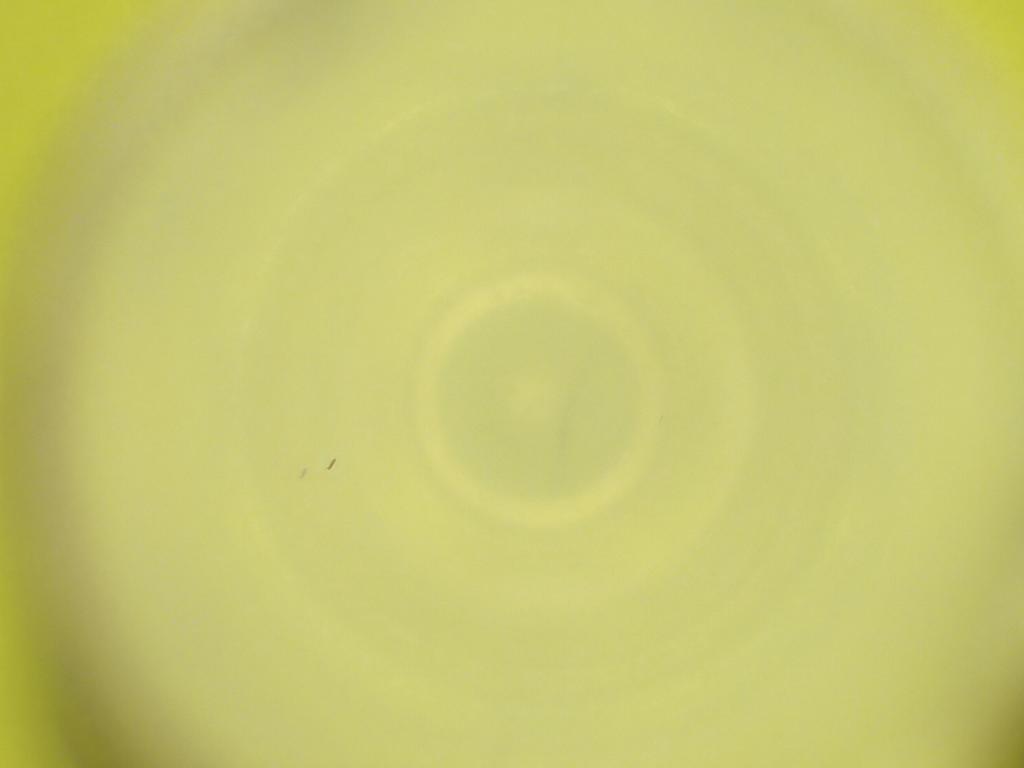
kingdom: Animalia
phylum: Arthropoda
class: Insecta
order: Diptera
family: Cecidomyiidae
